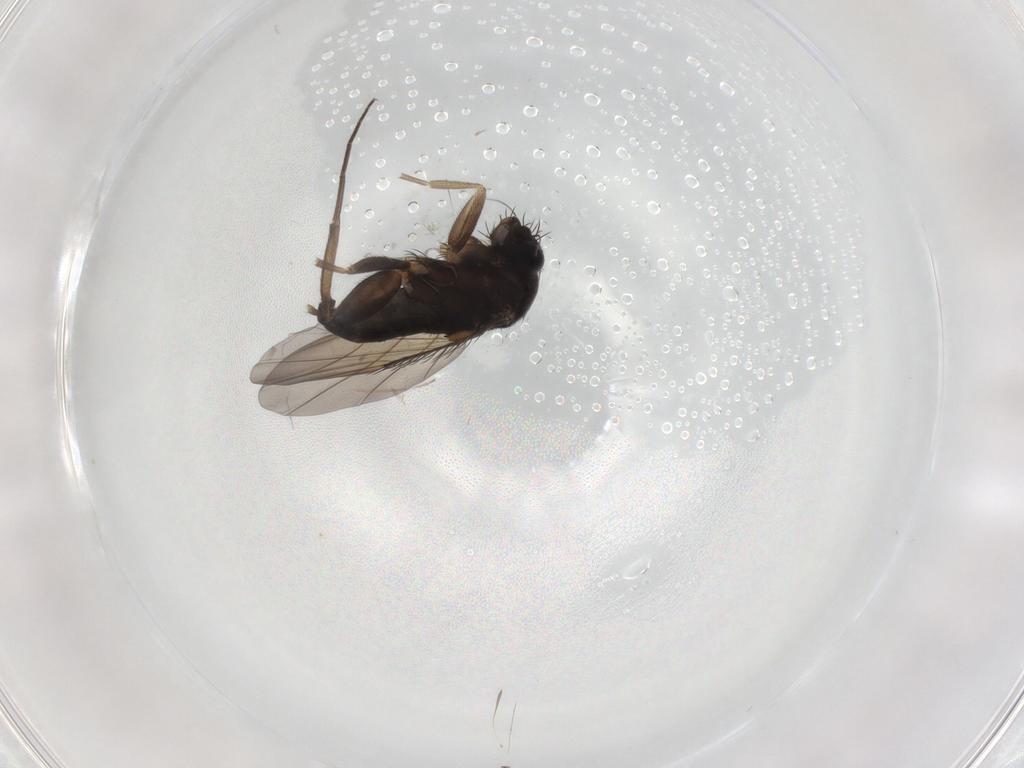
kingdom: Animalia
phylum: Arthropoda
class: Insecta
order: Diptera
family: Phoridae
